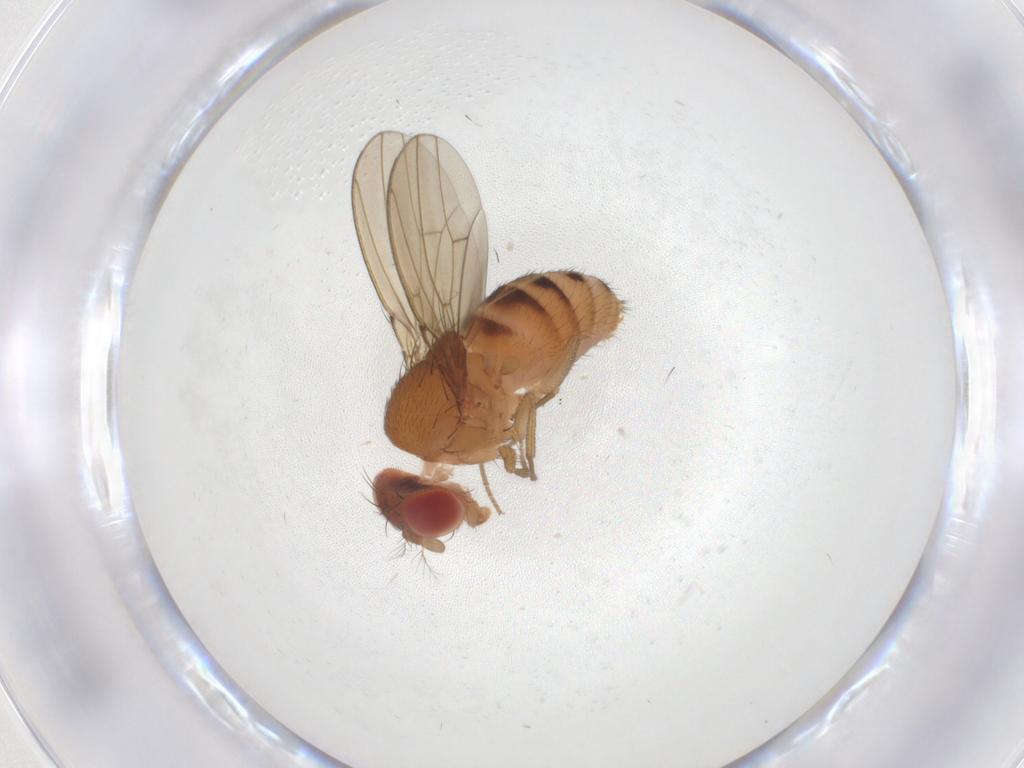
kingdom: Animalia
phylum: Arthropoda
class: Insecta
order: Diptera
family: Drosophilidae
